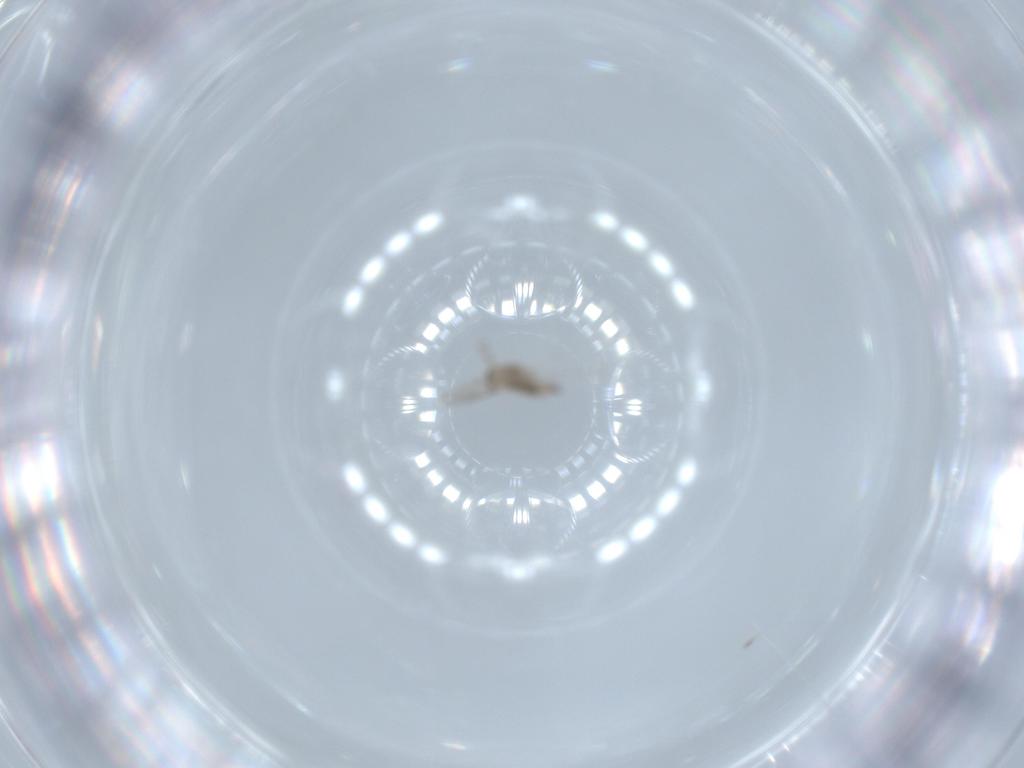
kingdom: Animalia
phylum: Arthropoda
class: Insecta
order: Diptera
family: Cecidomyiidae
